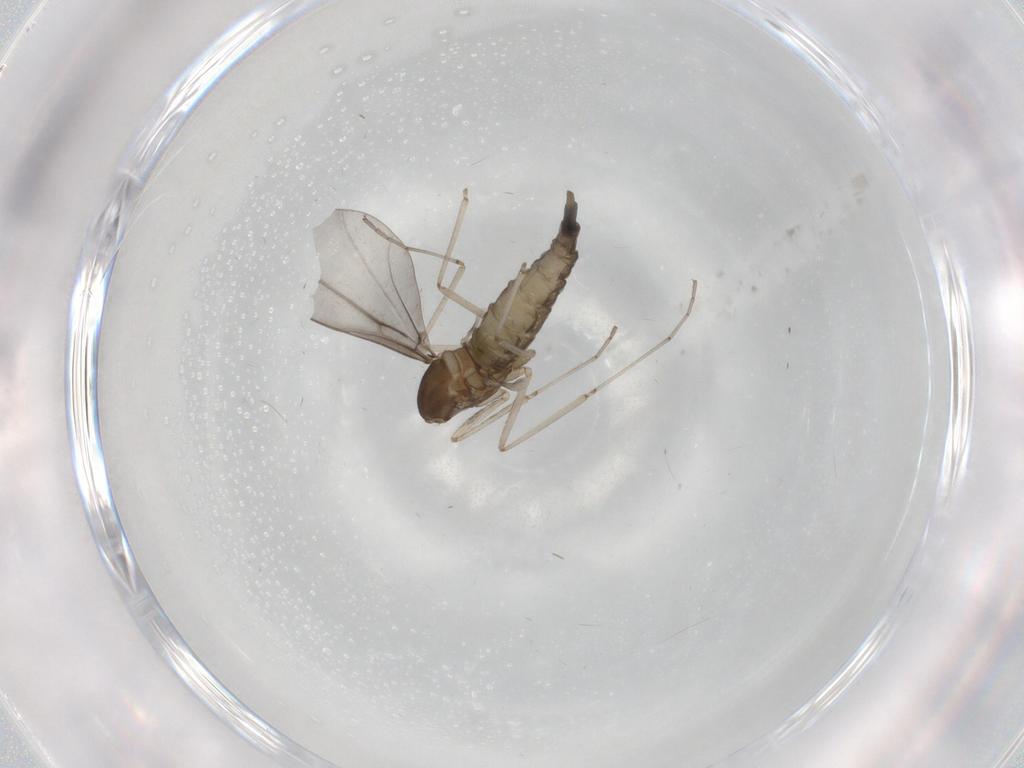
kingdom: Animalia
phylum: Arthropoda
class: Insecta
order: Diptera
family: Cecidomyiidae
